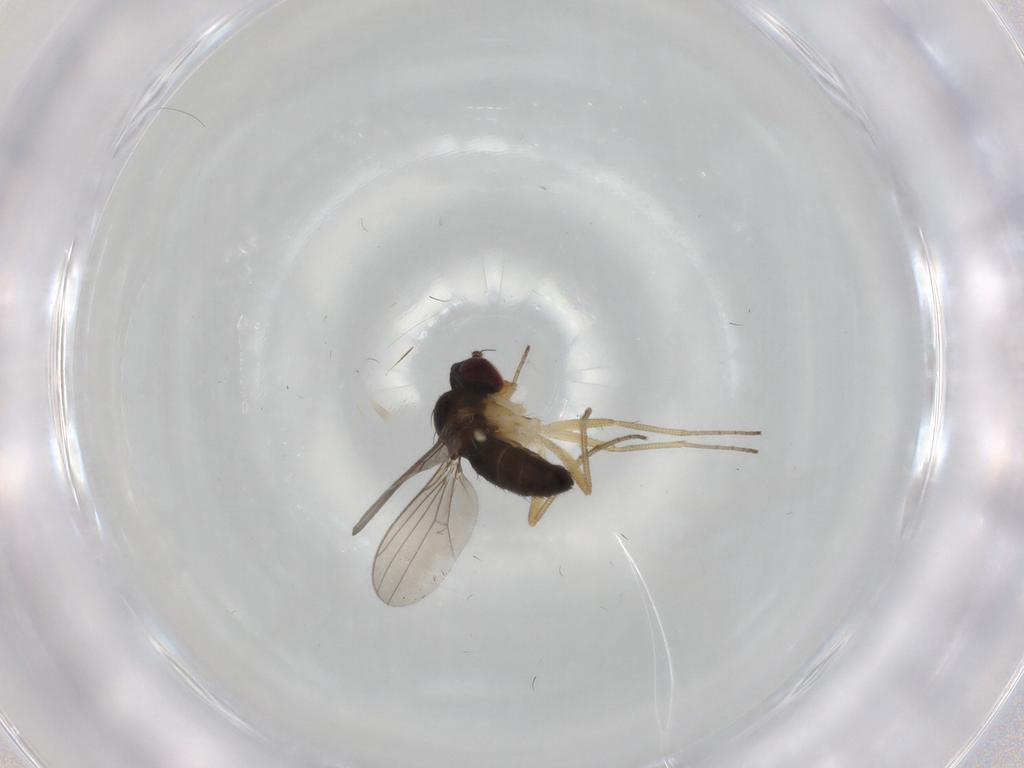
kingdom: Animalia
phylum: Arthropoda
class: Insecta
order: Diptera
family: Dolichopodidae
